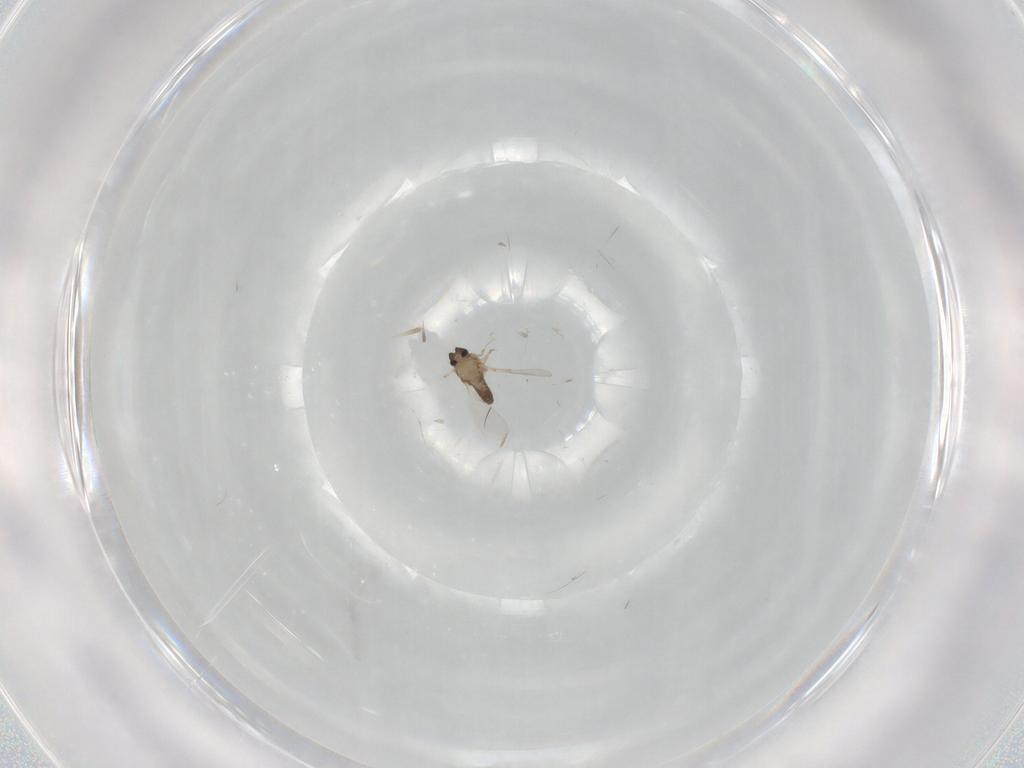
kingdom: Animalia
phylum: Arthropoda
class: Insecta
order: Diptera
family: Ceratopogonidae
